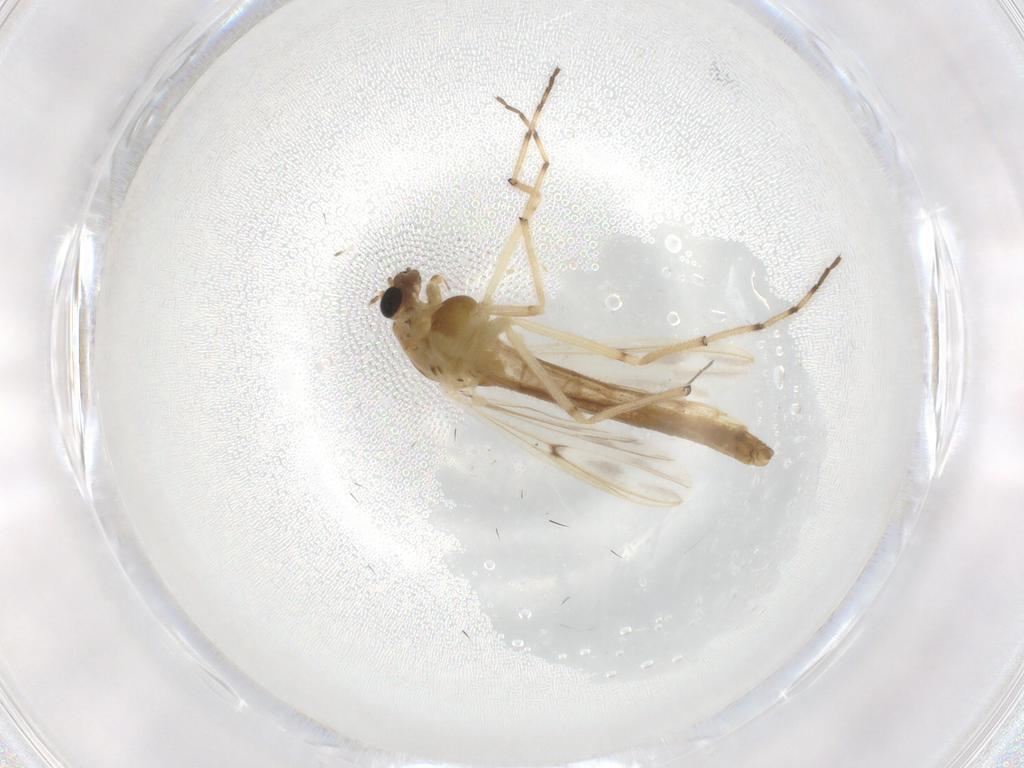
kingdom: Animalia
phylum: Arthropoda
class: Insecta
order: Diptera
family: Chironomidae
